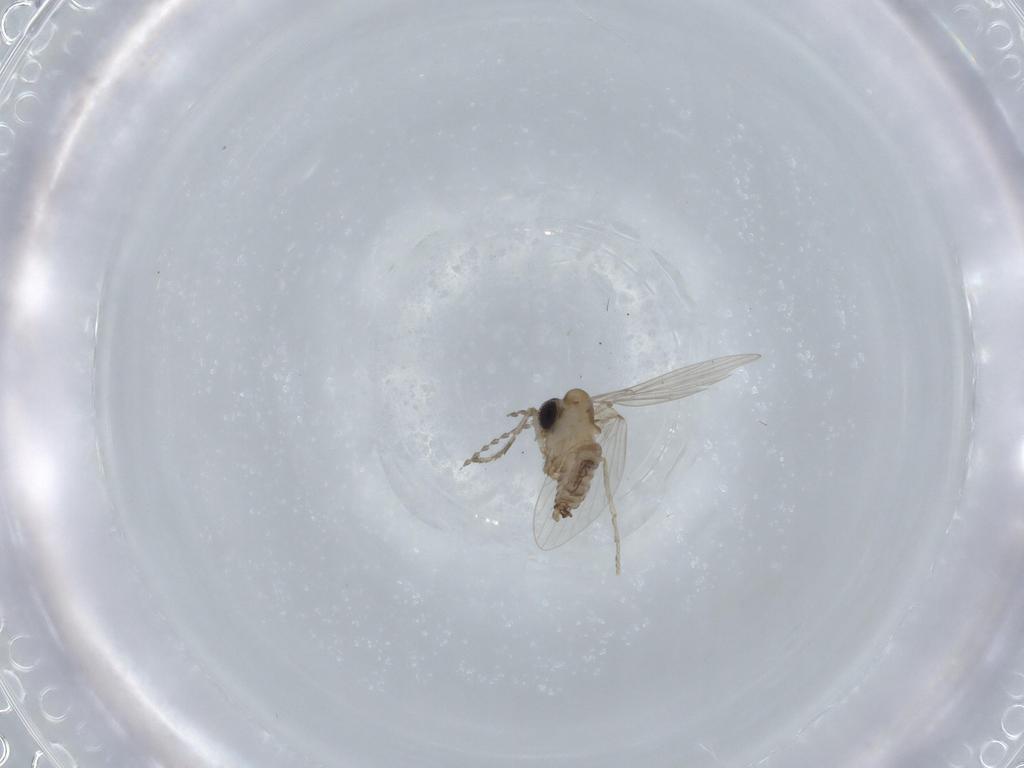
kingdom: Animalia
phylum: Arthropoda
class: Insecta
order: Diptera
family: Psychodidae
